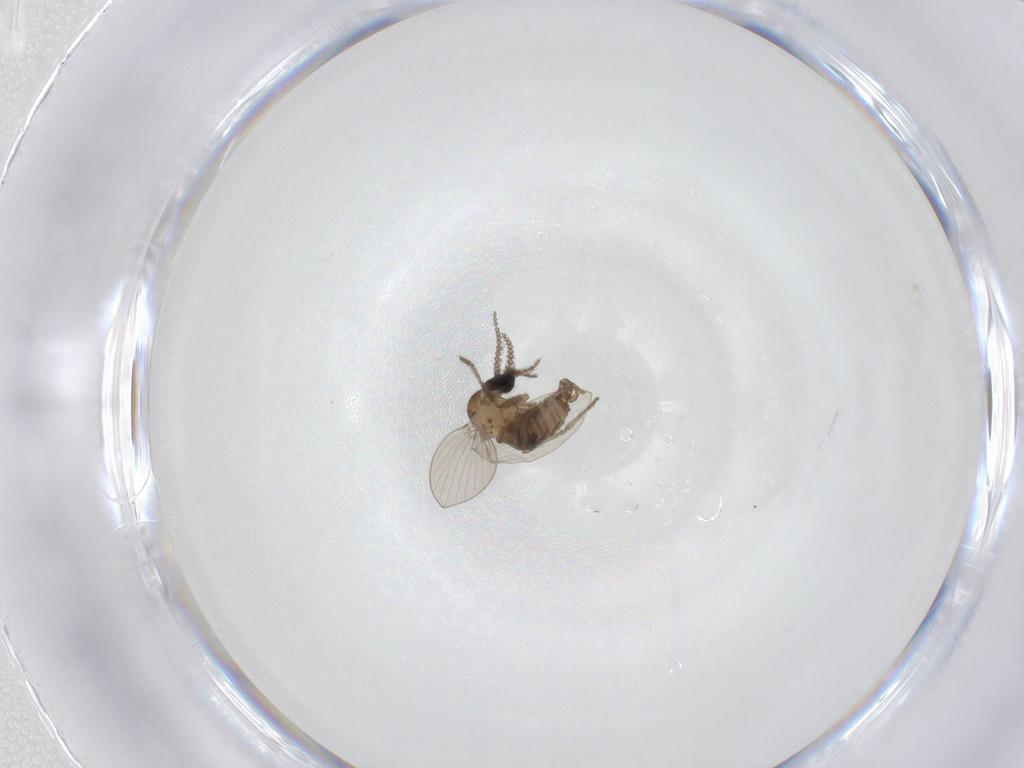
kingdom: Animalia
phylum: Arthropoda
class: Insecta
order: Diptera
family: Psychodidae
